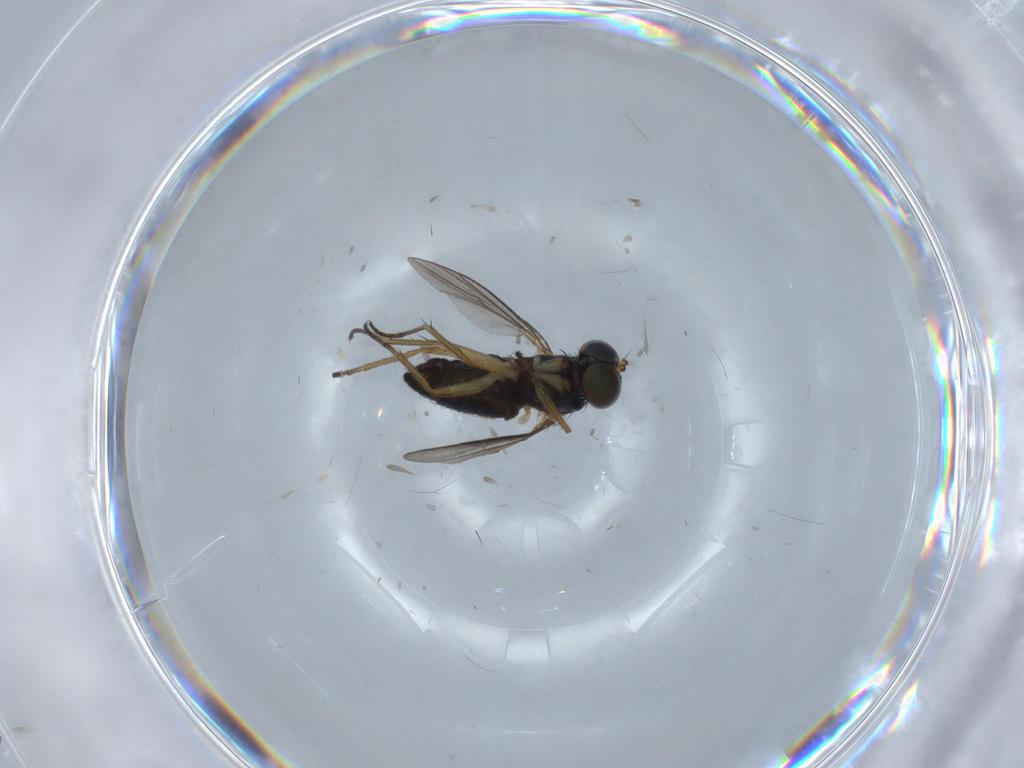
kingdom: Animalia
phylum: Arthropoda
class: Insecta
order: Diptera
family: Dolichopodidae
